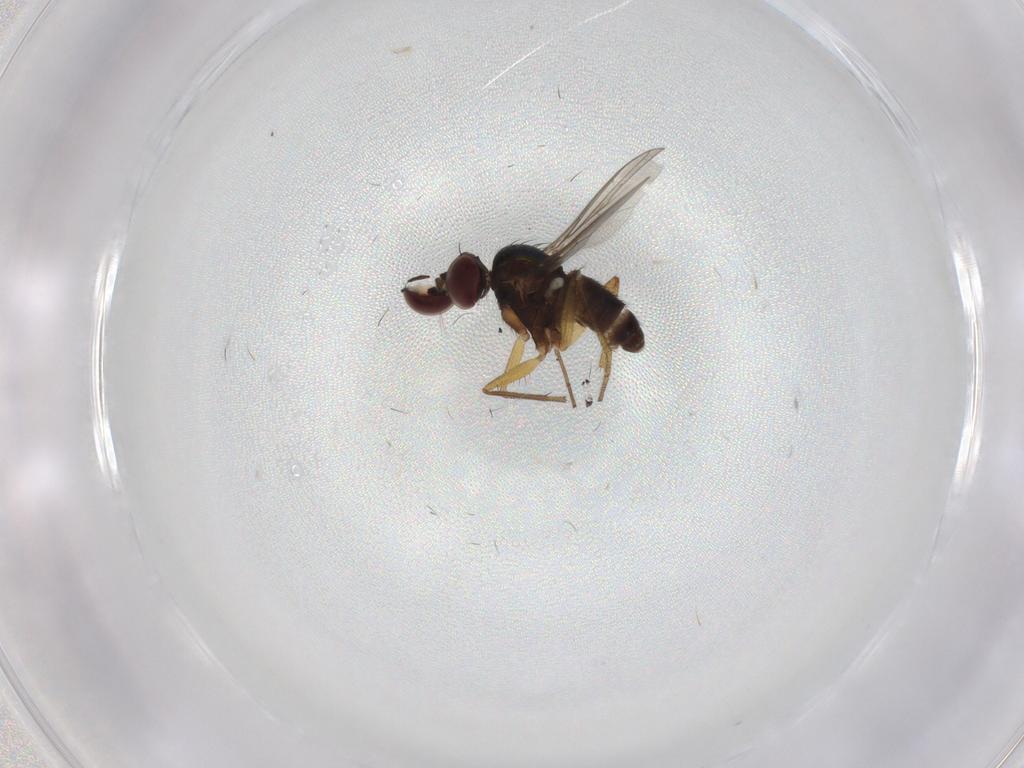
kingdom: Animalia
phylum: Arthropoda
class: Insecta
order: Diptera
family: Dolichopodidae
